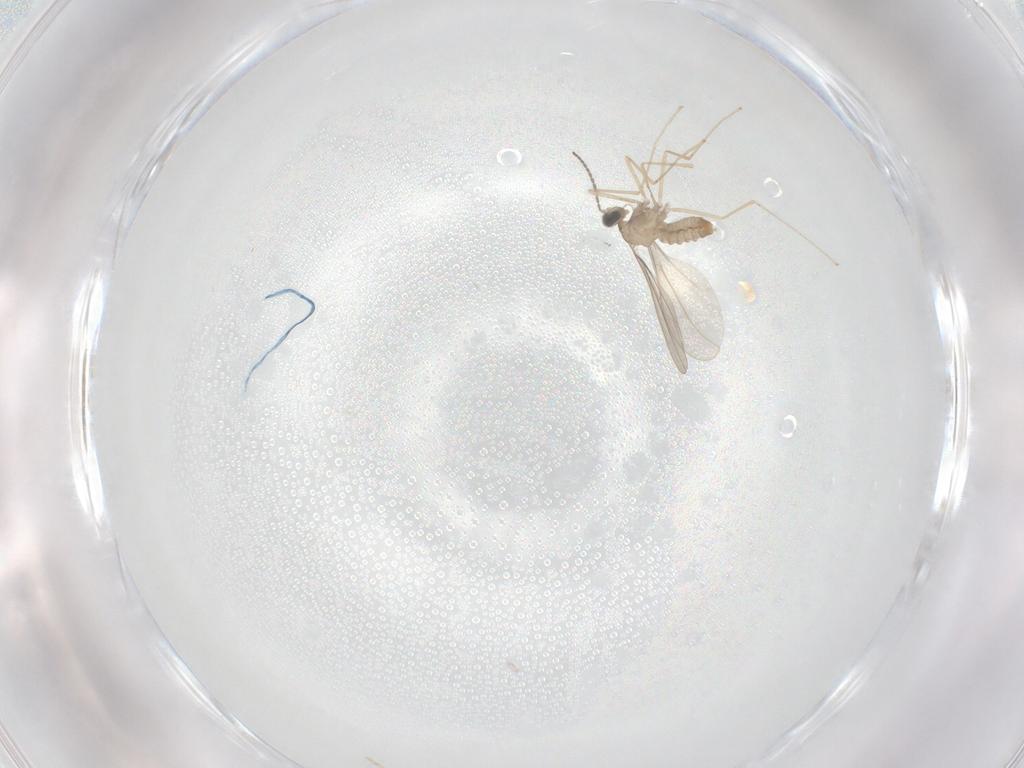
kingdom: Animalia
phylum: Arthropoda
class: Insecta
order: Diptera
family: Cecidomyiidae
